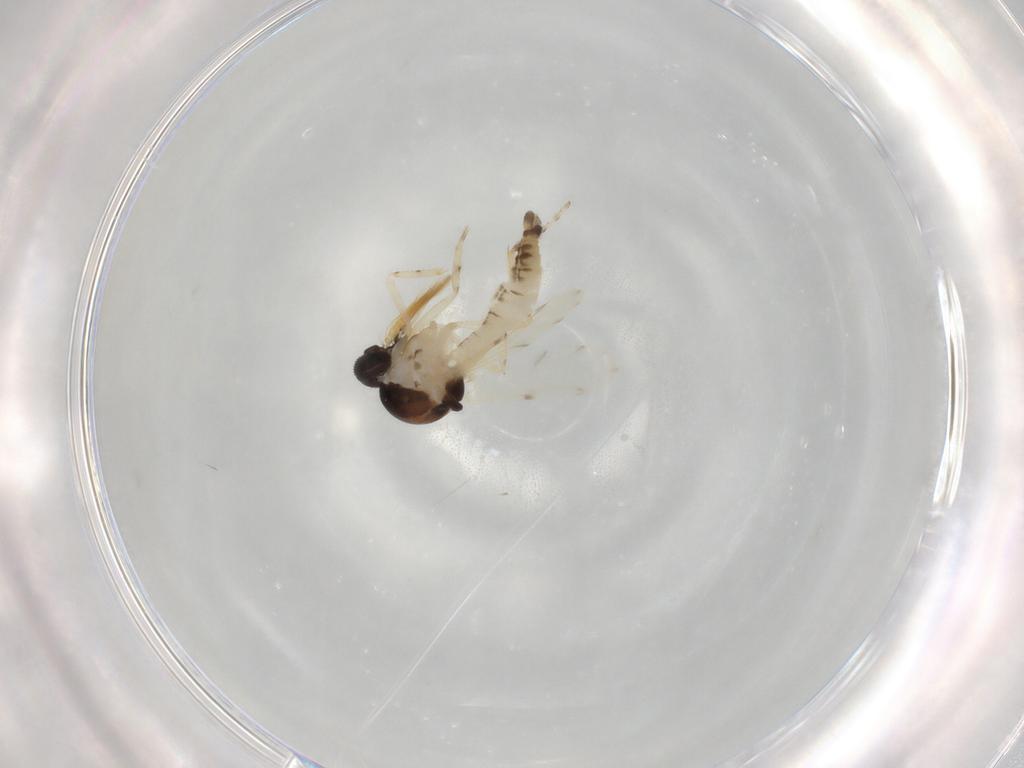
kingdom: Animalia
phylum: Arthropoda
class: Insecta
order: Diptera
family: Ceratopogonidae
